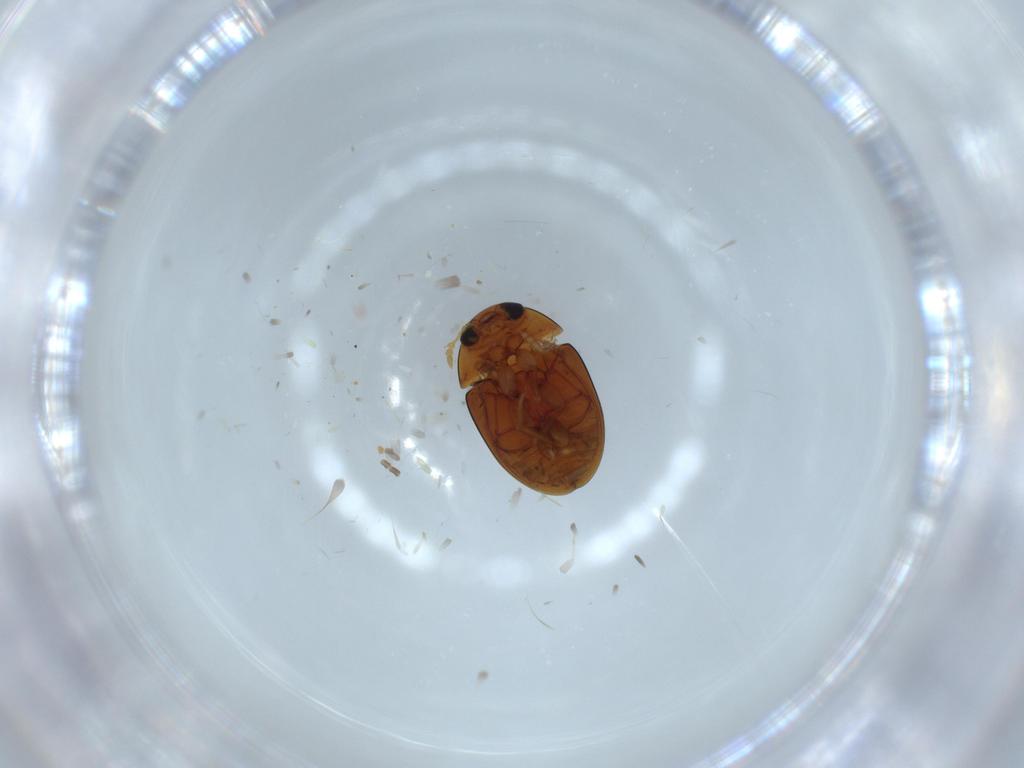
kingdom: Animalia
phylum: Arthropoda
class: Insecta
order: Coleoptera
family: Phalacridae
